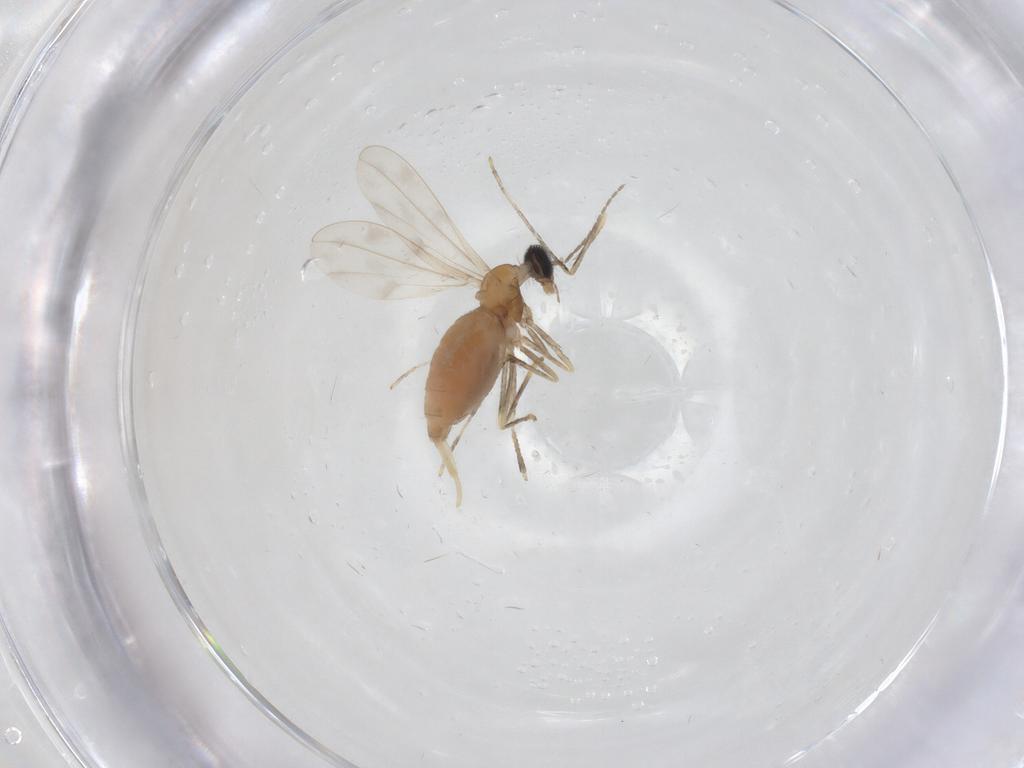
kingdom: Animalia
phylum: Arthropoda
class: Insecta
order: Diptera
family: Cecidomyiidae
